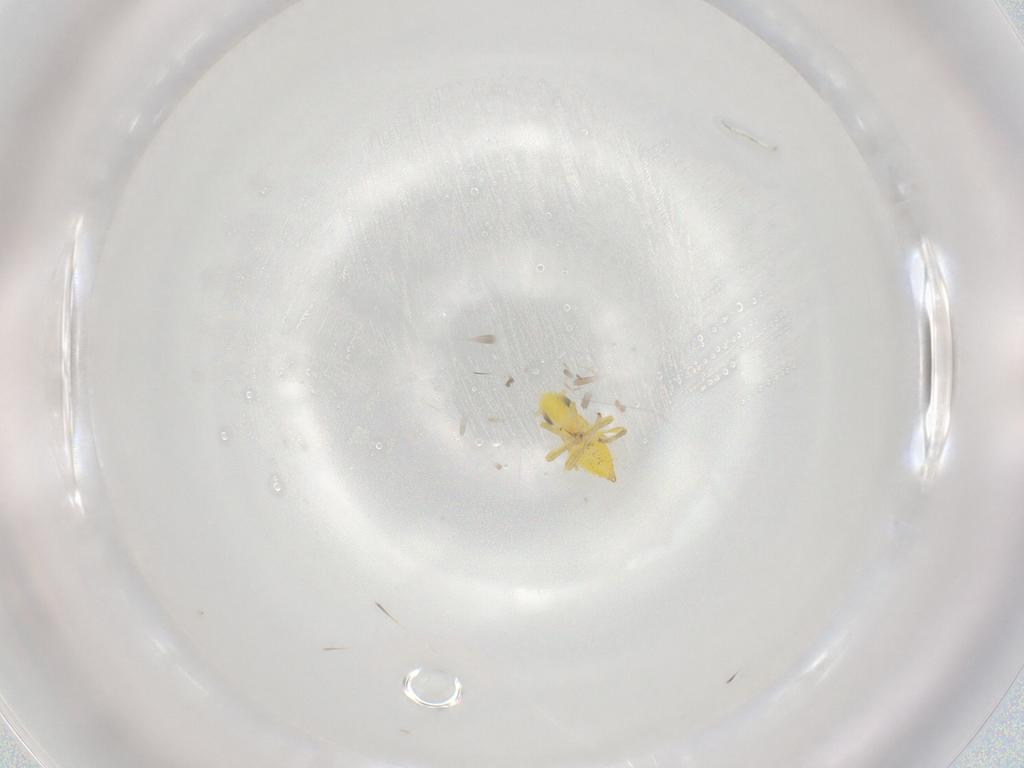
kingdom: Animalia
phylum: Arthropoda
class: Insecta
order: Hemiptera
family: Cicadellidae
